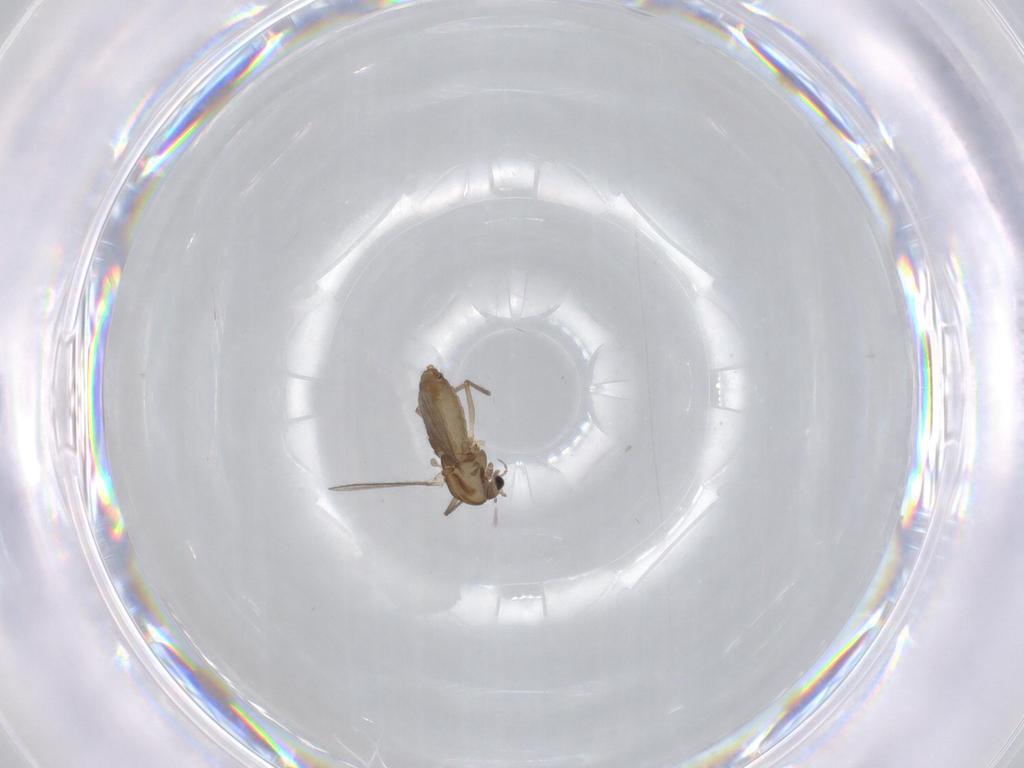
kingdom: Animalia
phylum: Arthropoda
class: Insecta
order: Diptera
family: Chironomidae
